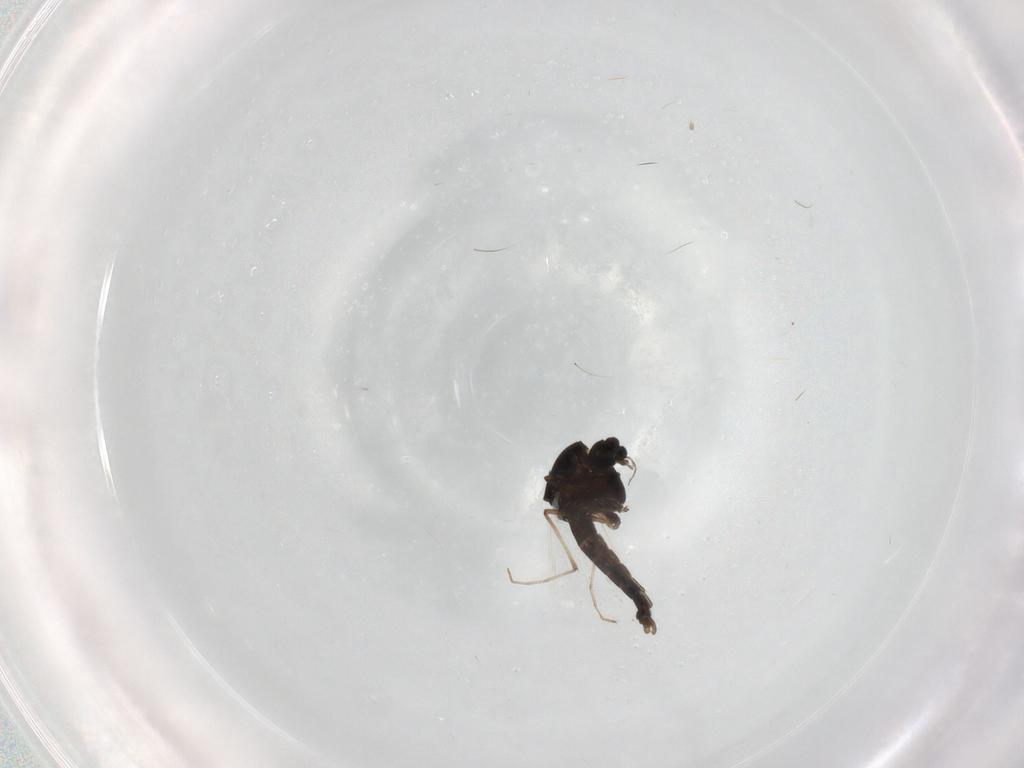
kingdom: Animalia
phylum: Arthropoda
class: Insecta
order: Diptera
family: Chironomidae
